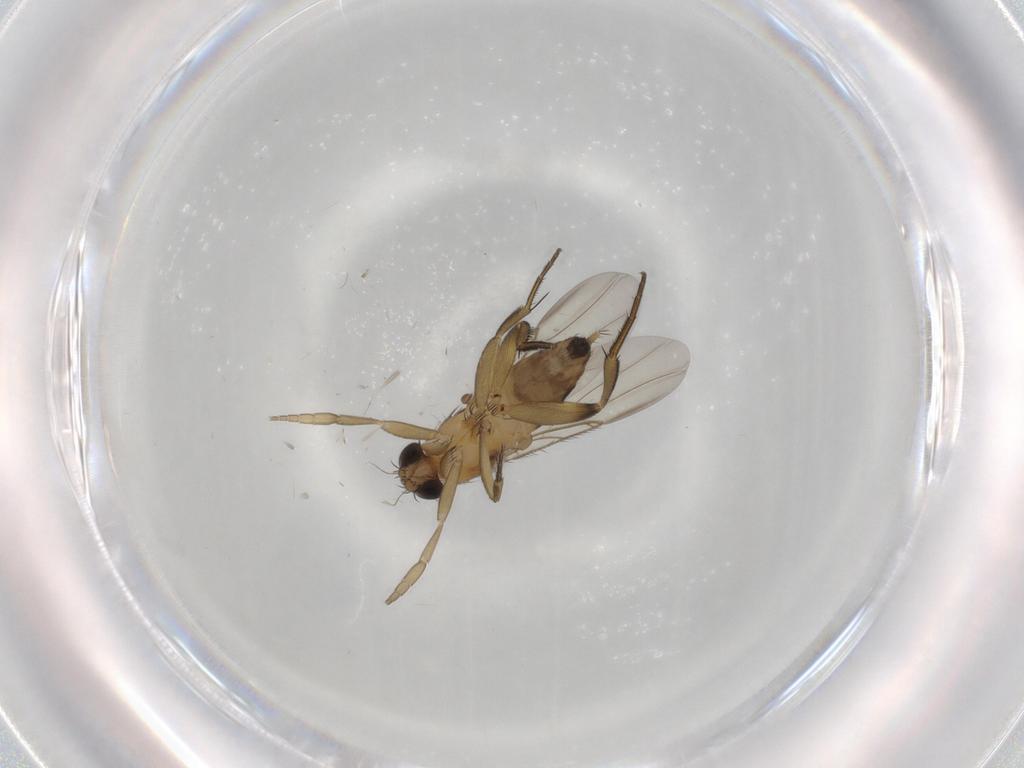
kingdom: Animalia
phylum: Arthropoda
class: Insecta
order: Diptera
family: Phoridae
